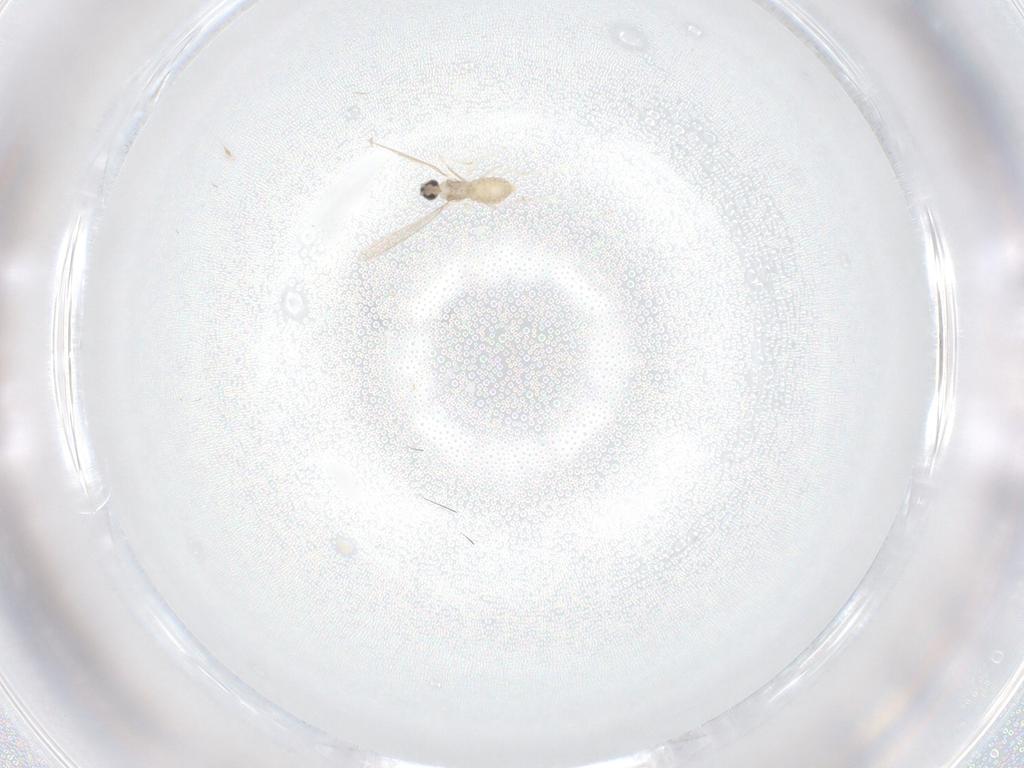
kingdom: Animalia
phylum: Arthropoda
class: Insecta
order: Diptera
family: Cecidomyiidae
